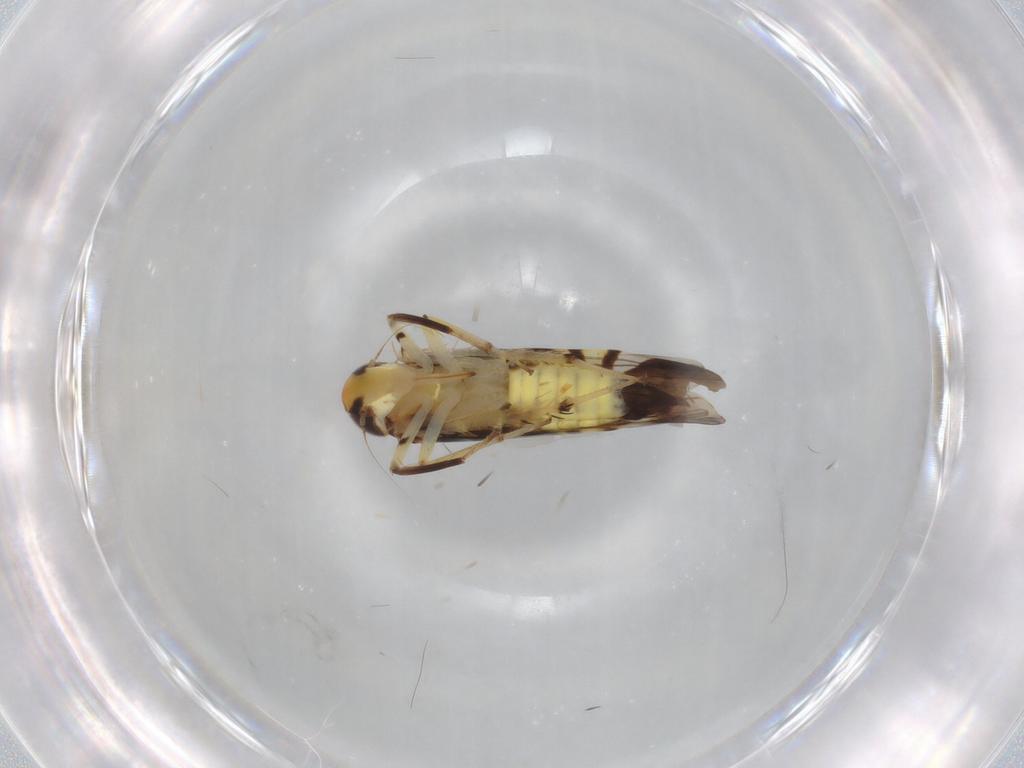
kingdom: Animalia
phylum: Arthropoda
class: Insecta
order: Hemiptera
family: Cicadellidae
